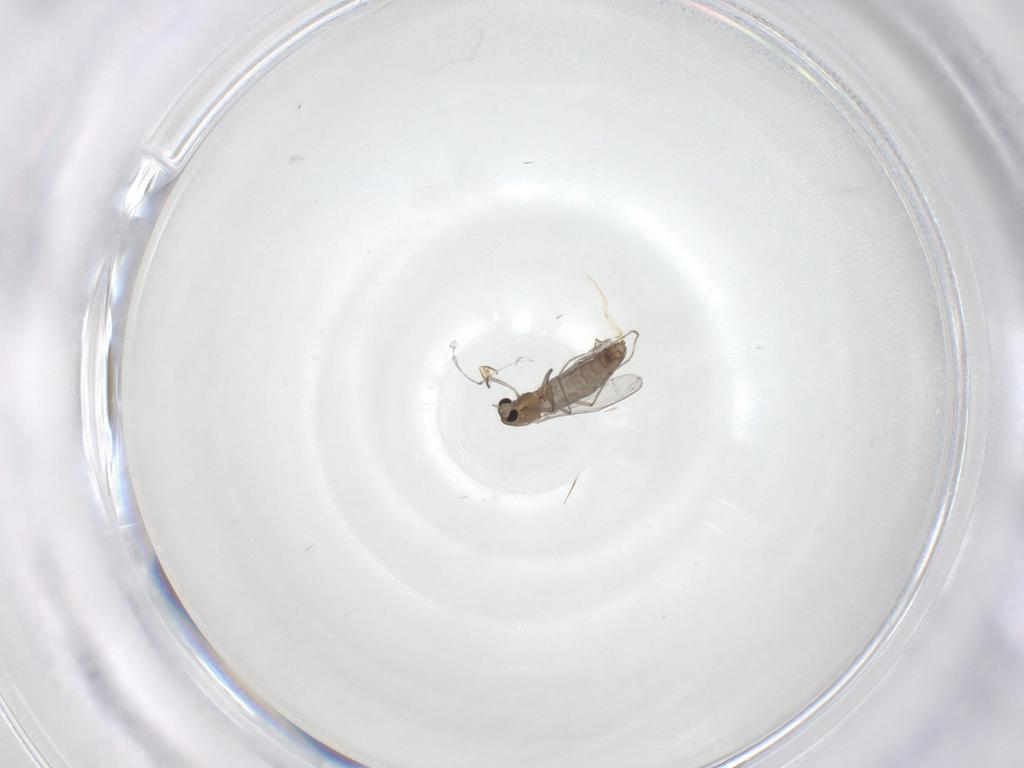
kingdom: Animalia
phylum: Arthropoda
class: Insecta
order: Diptera
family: Chironomidae
